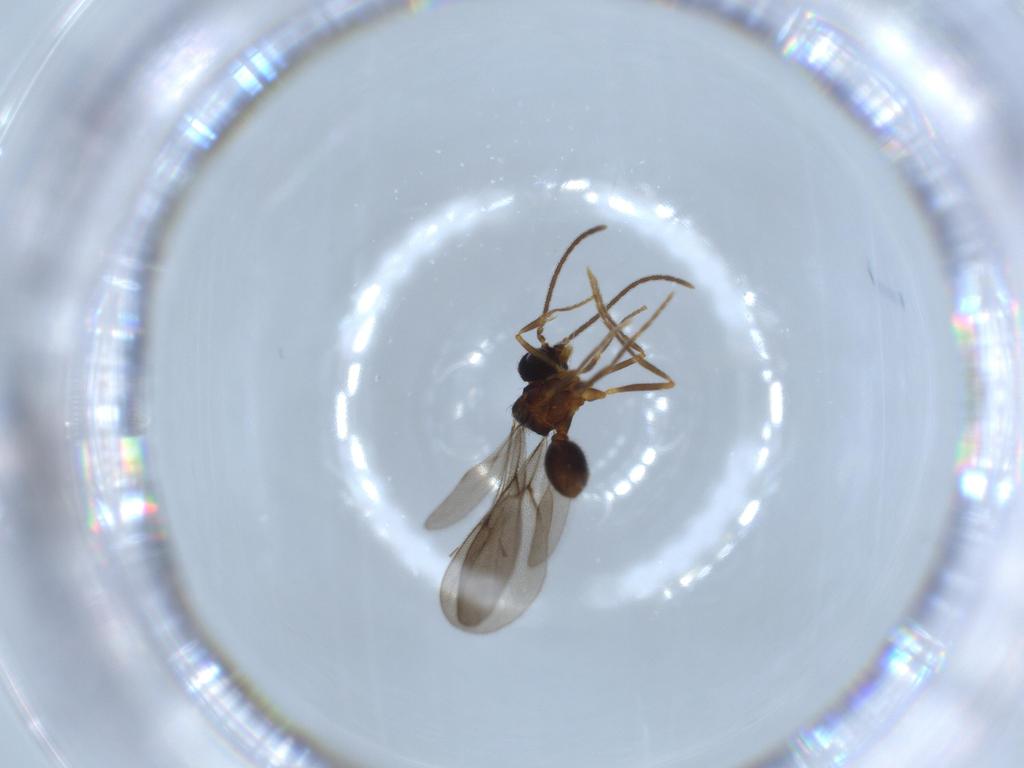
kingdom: Animalia
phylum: Arthropoda
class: Insecta
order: Hymenoptera
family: Formicidae
